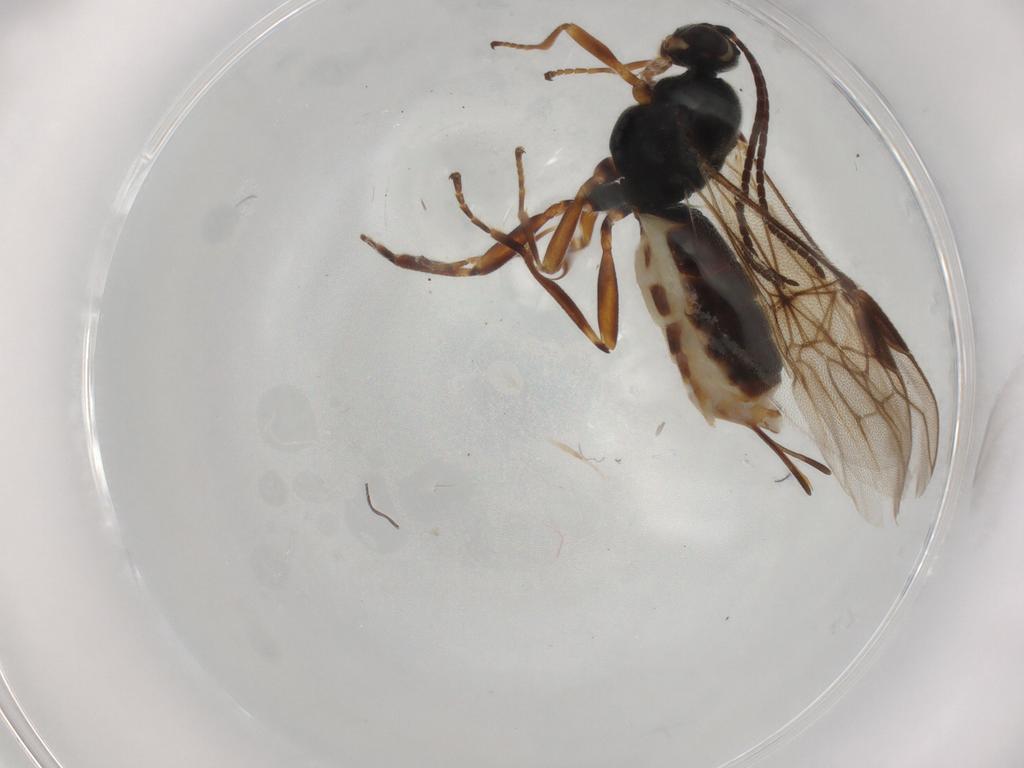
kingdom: Animalia
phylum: Arthropoda
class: Insecta
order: Hymenoptera
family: Braconidae
